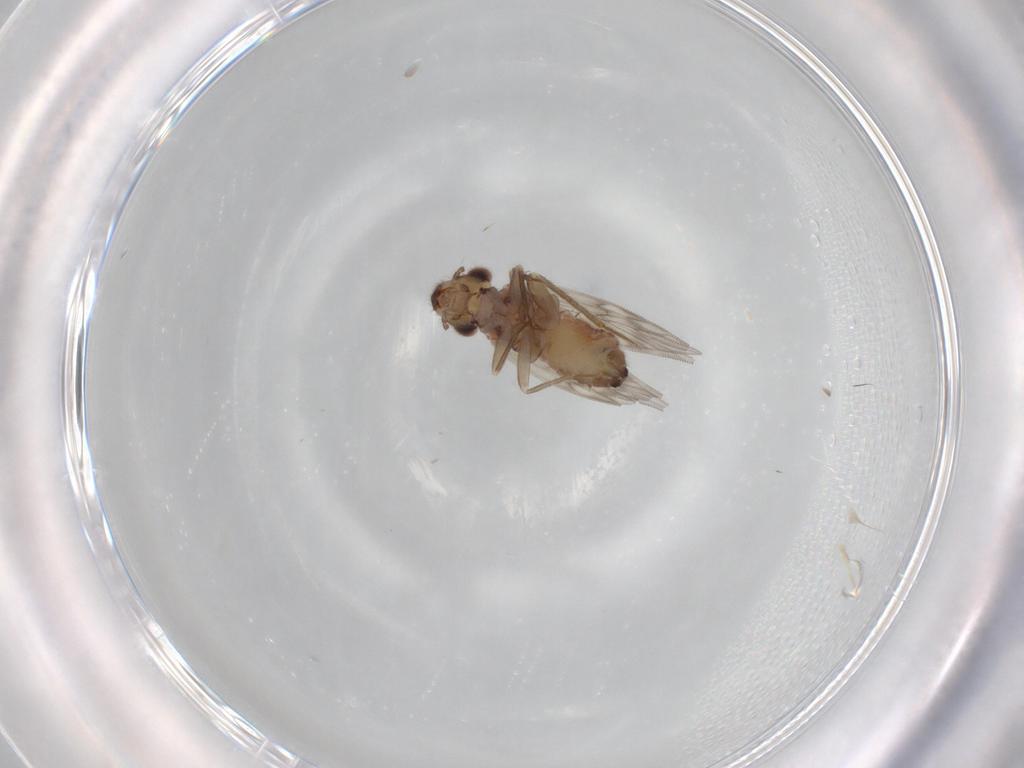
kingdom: Animalia
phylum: Arthropoda
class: Insecta
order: Psocodea
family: Lepidopsocidae
